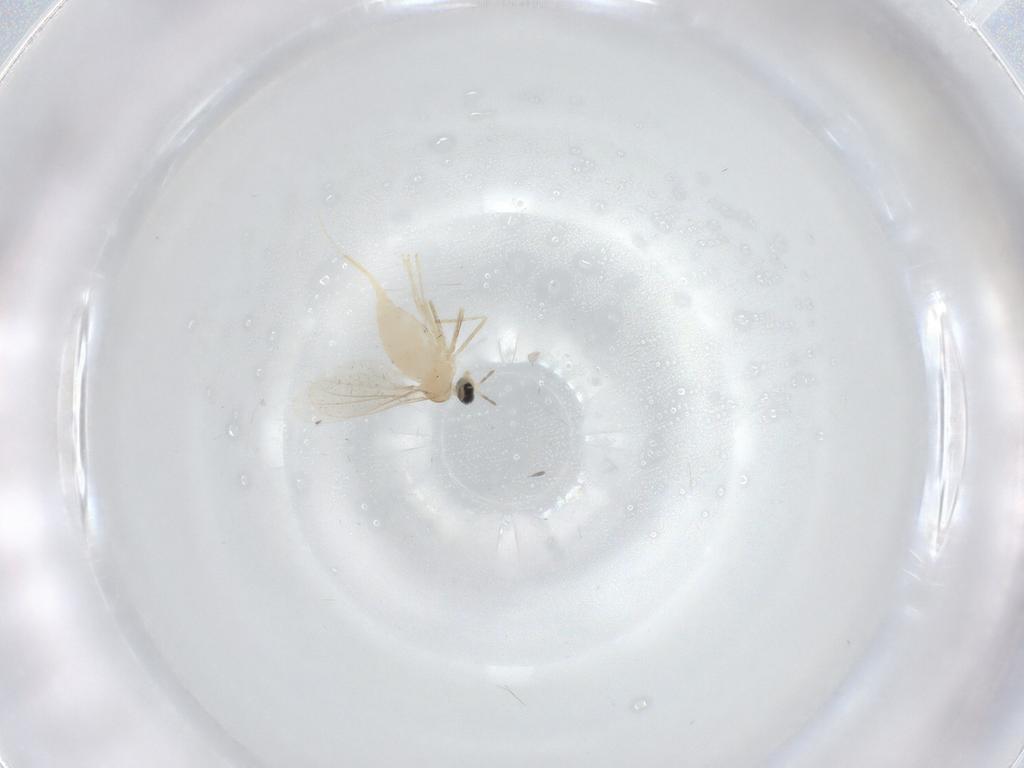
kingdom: Animalia
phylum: Arthropoda
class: Insecta
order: Diptera
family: Cecidomyiidae
